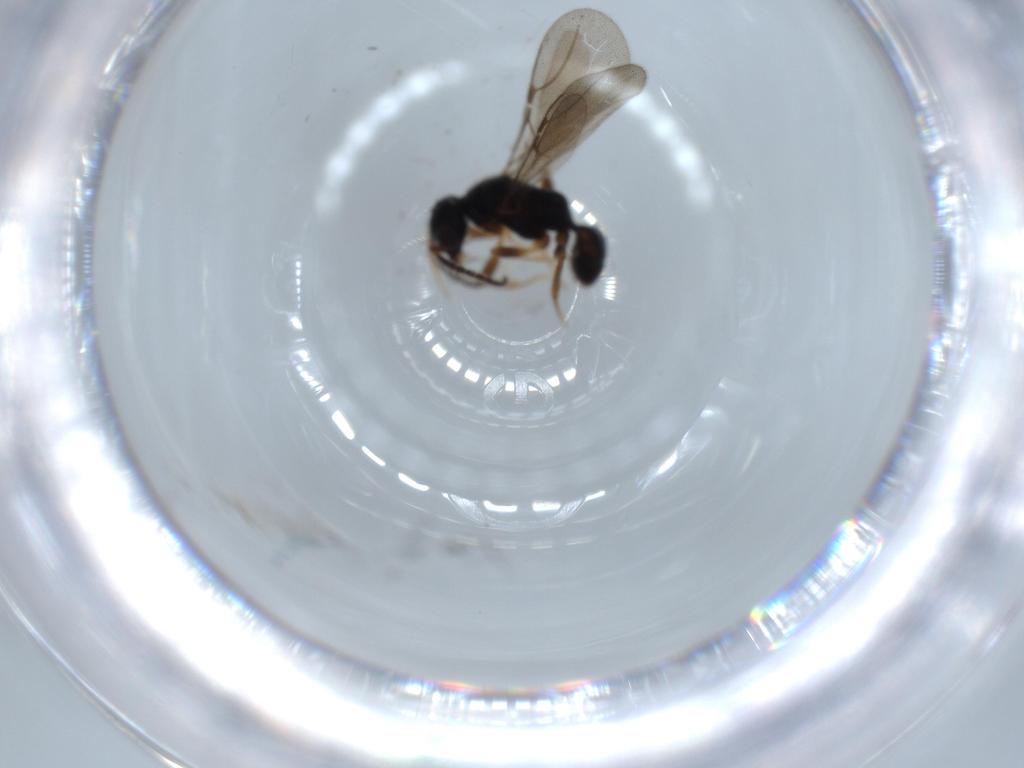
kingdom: Animalia
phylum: Arthropoda
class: Insecta
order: Hymenoptera
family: Bethylidae
